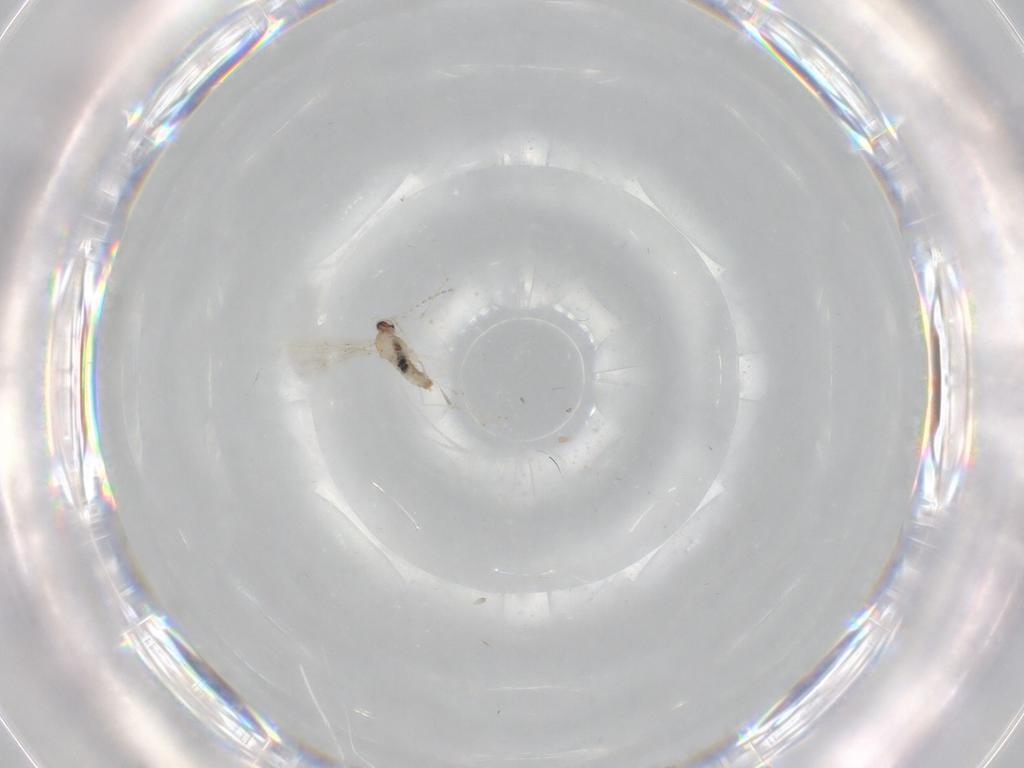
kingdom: Animalia
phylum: Arthropoda
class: Insecta
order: Diptera
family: Cecidomyiidae
